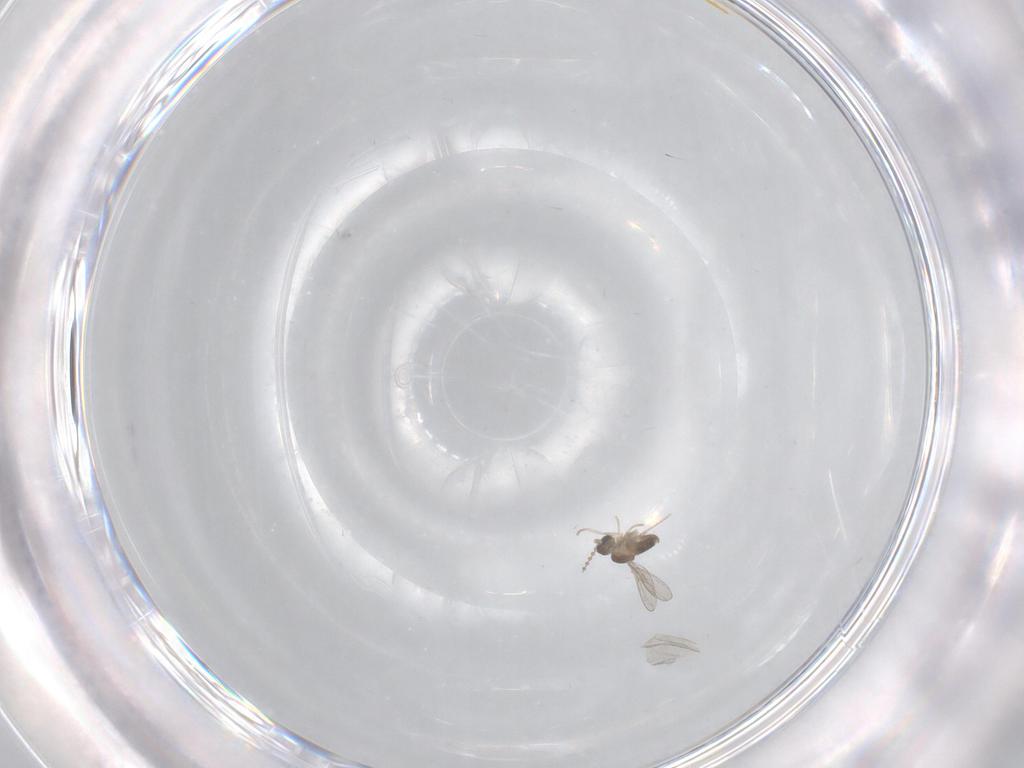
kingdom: Animalia
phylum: Arthropoda
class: Insecta
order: Diptera
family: Cecidomyiidae
